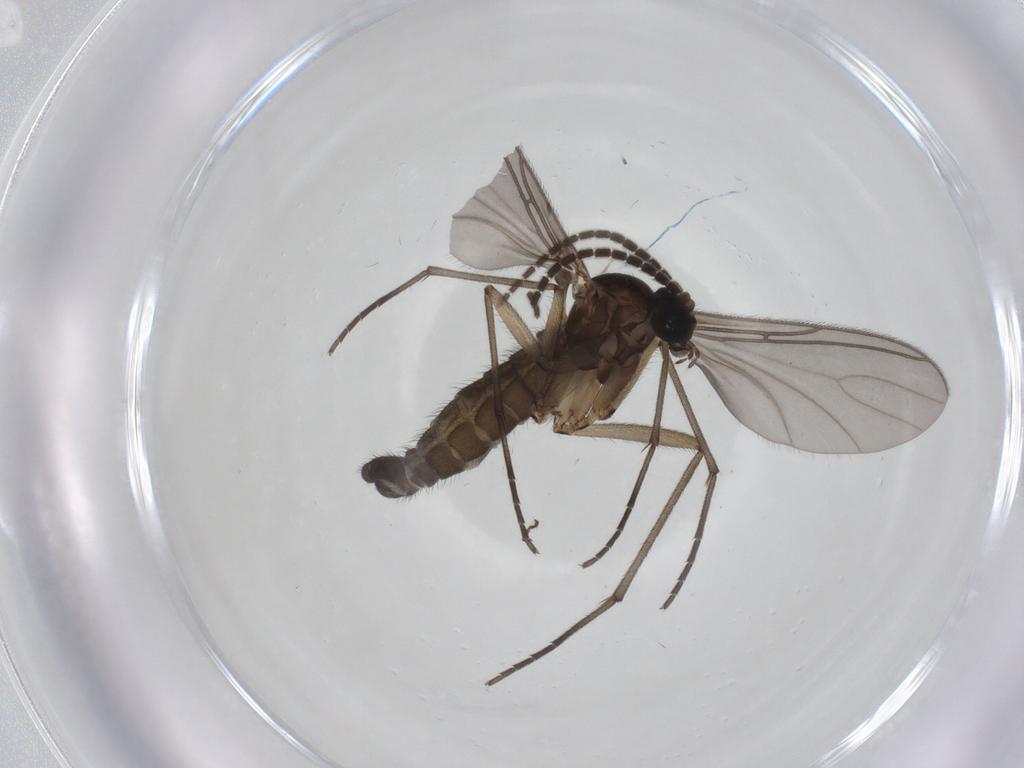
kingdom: Animalia
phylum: Arthropoda
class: Insecta
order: Diptera
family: Sciaridae
